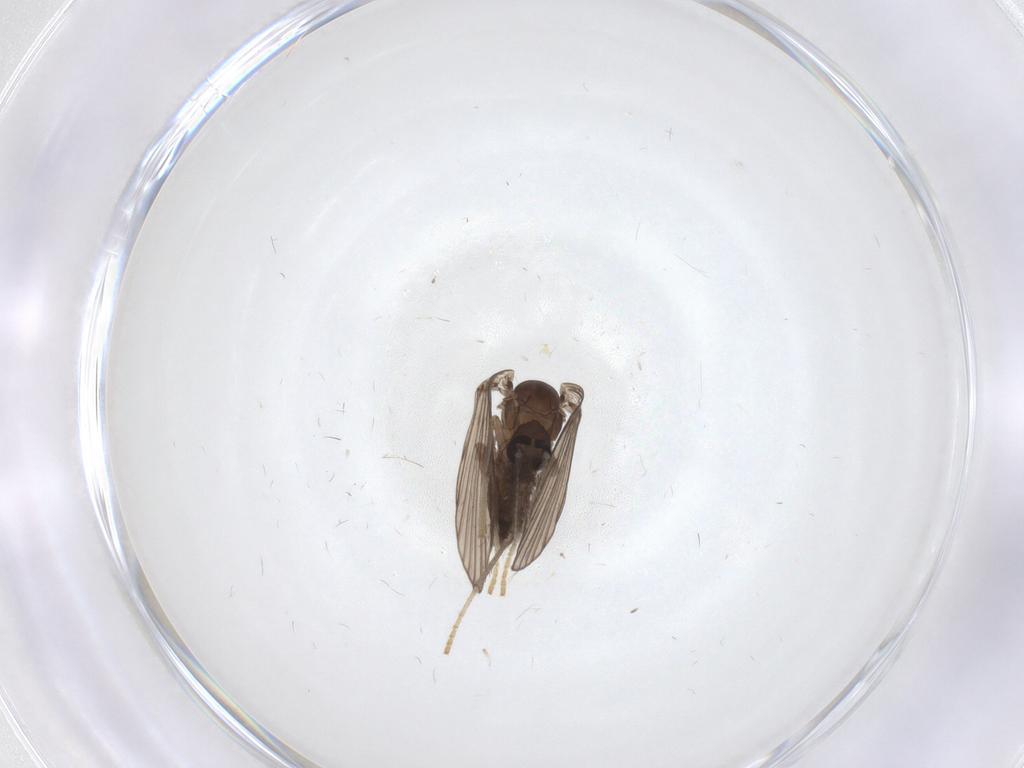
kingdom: Animalia
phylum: Arthropoda
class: Insecta
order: Diptera
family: Psychodidae
